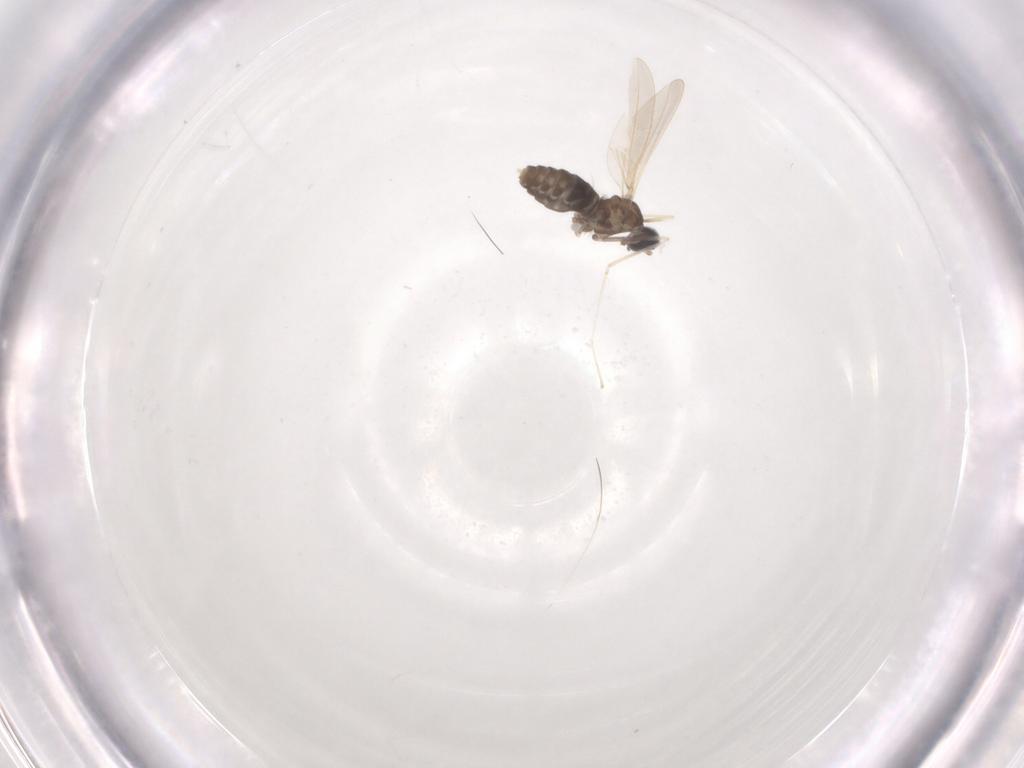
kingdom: Animalia
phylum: Arthropoda
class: Insecta
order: Diptera
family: Cecidomyiidae
